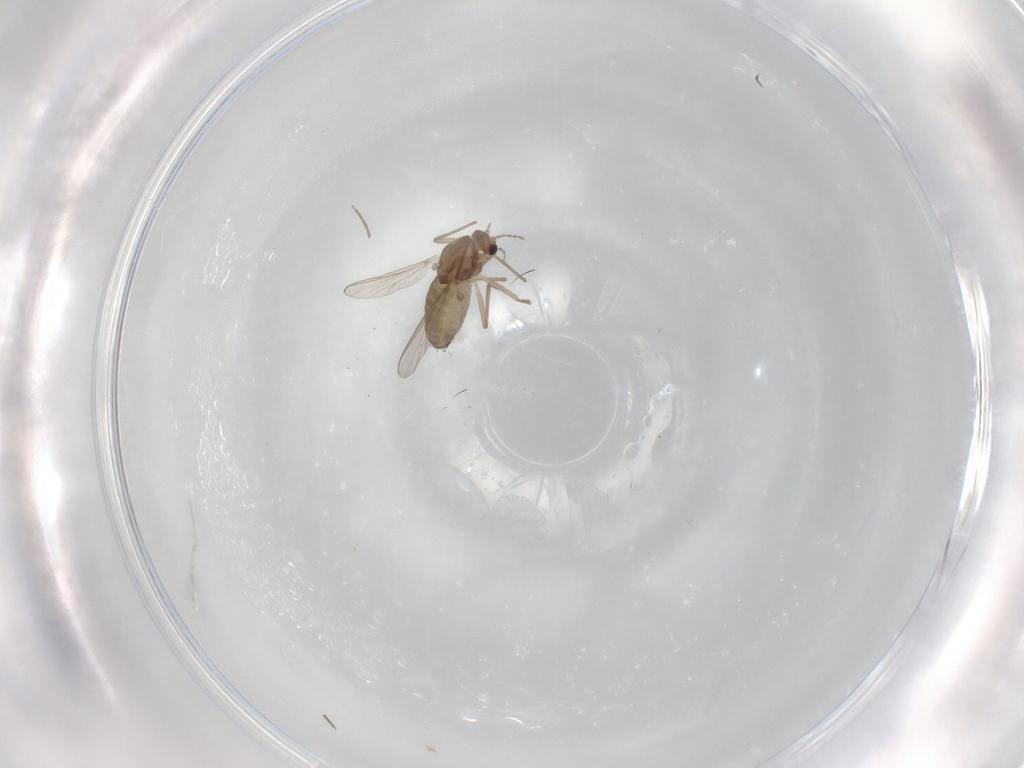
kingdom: Animalia
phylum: Arthropoda
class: Insecta
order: Diptera
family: Chironomidae
